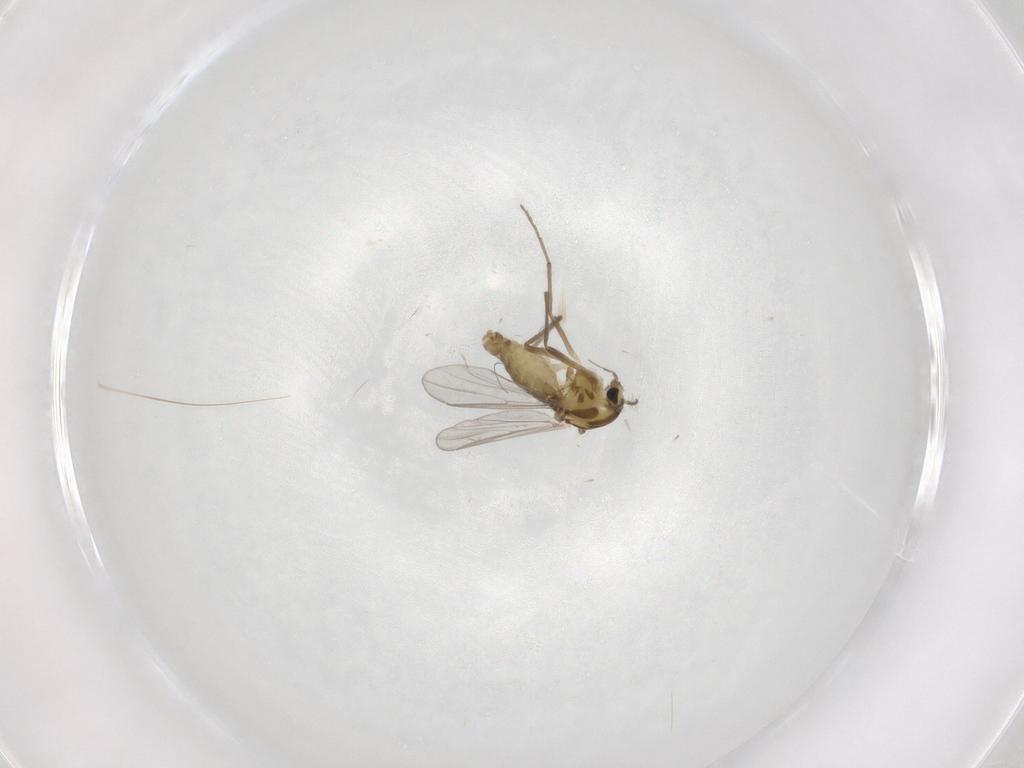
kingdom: Animalia
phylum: Arthropoda
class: Insecta
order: Diptera
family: Chironomidae
